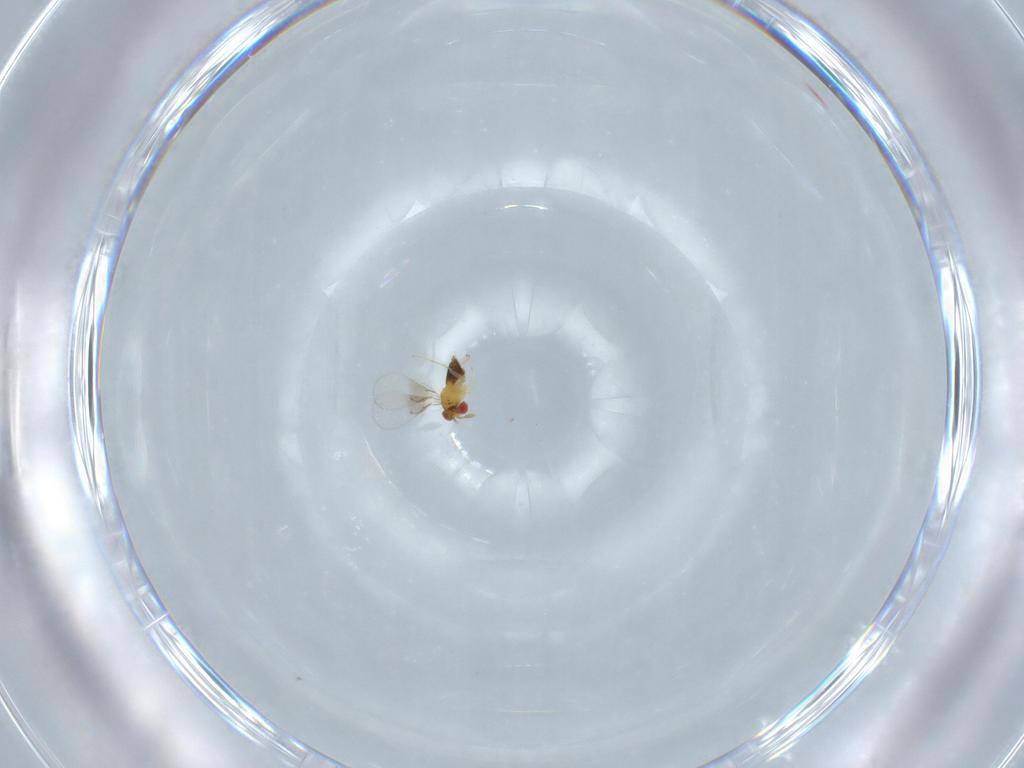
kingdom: Animalia
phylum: Arthropoda
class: Insecta
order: Hymenoptera
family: Trichogrammatidae
